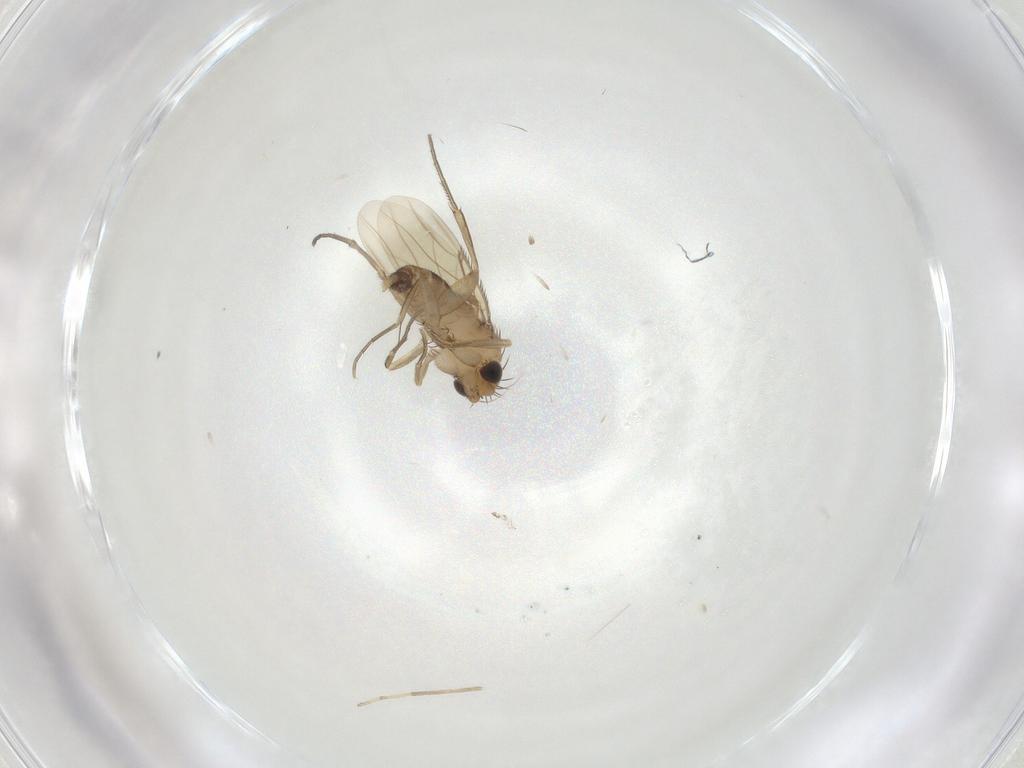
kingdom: Animalia
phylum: Arthropoda
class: Insecta
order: Diptera
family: Phoridae
